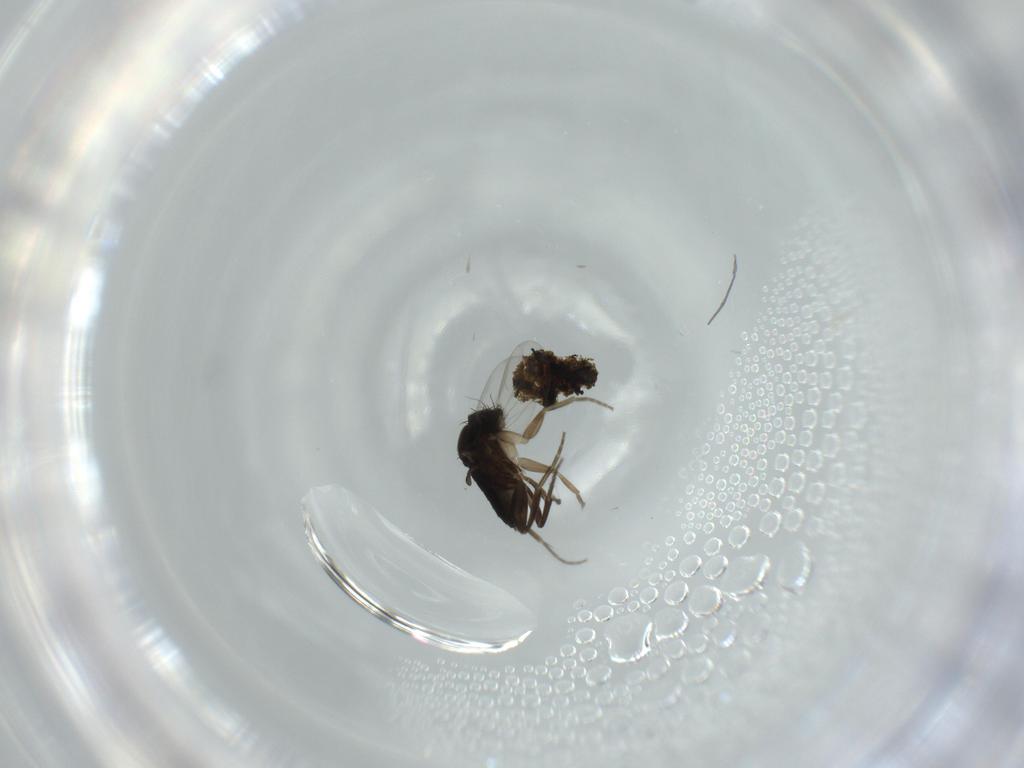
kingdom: Animalia
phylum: Arthropoda
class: Insecta
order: Diptera
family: Phoridae
